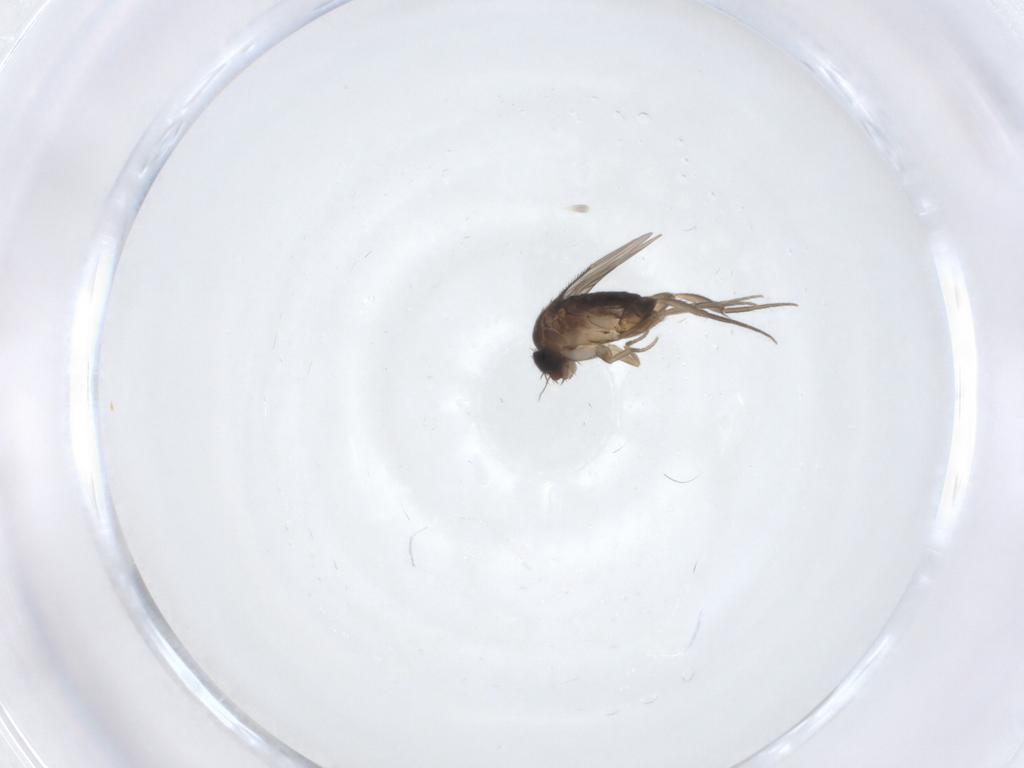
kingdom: Animalia
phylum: Arthropoda
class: Insecta
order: Diptera
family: Phoridae
